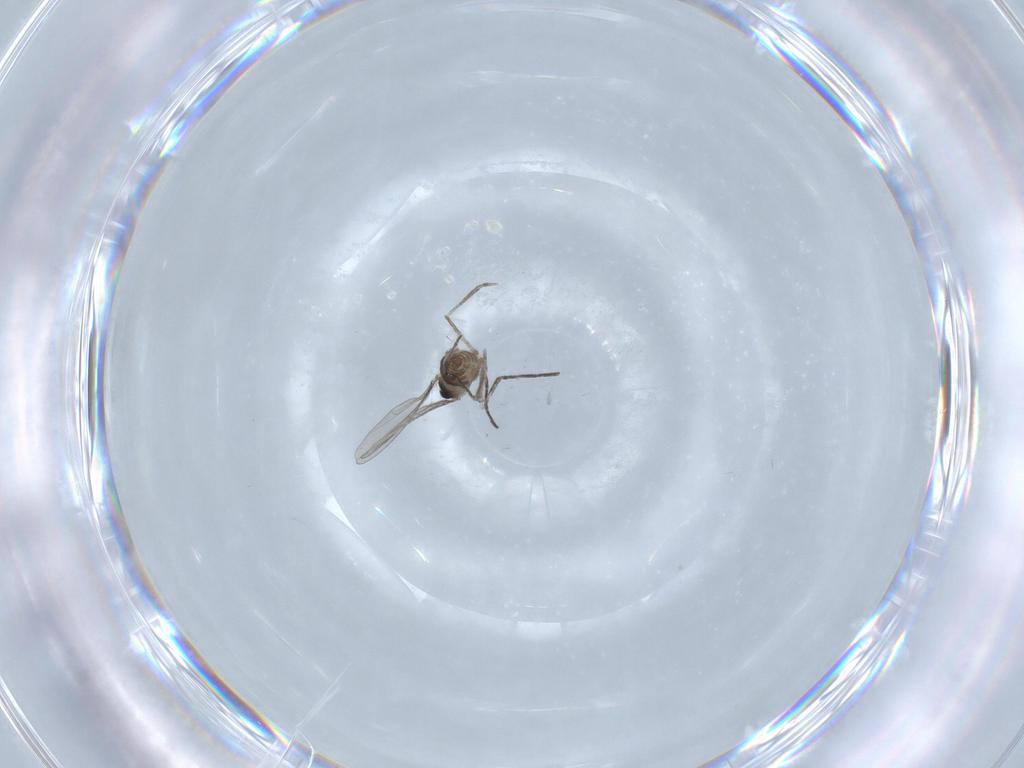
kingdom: Animalia
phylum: Arthropoda
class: Insecta
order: Diptera
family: Cecidomyiidae
